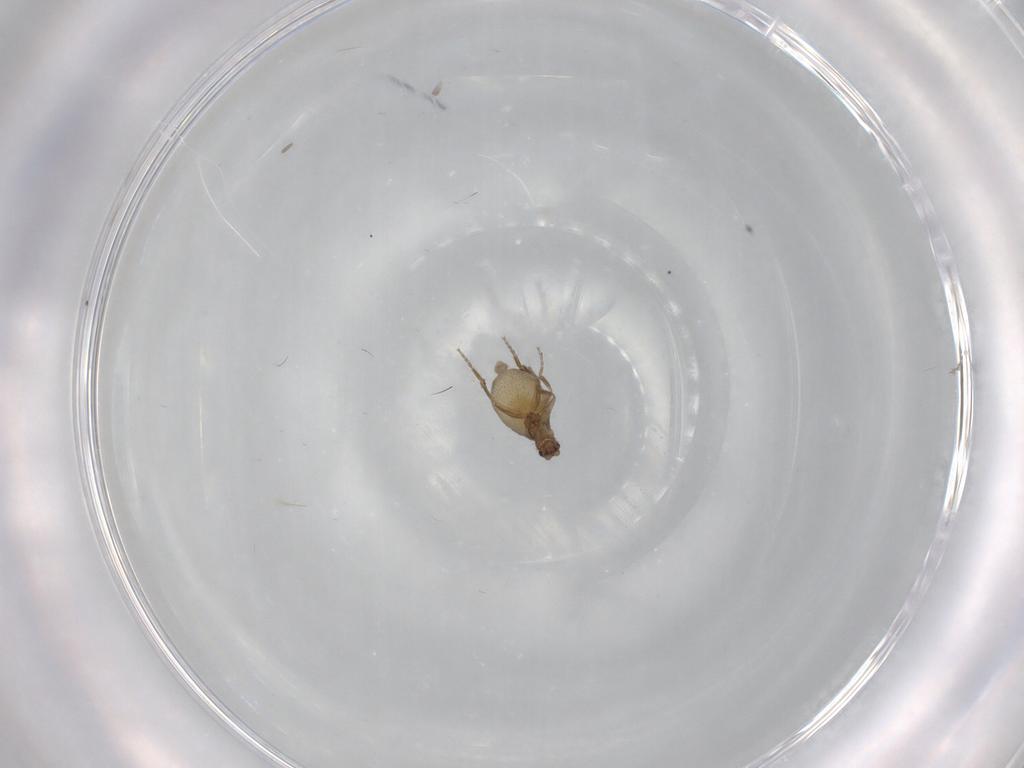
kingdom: Animalia
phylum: Arthropoda
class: Insecta
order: Diptera
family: Phoridae
